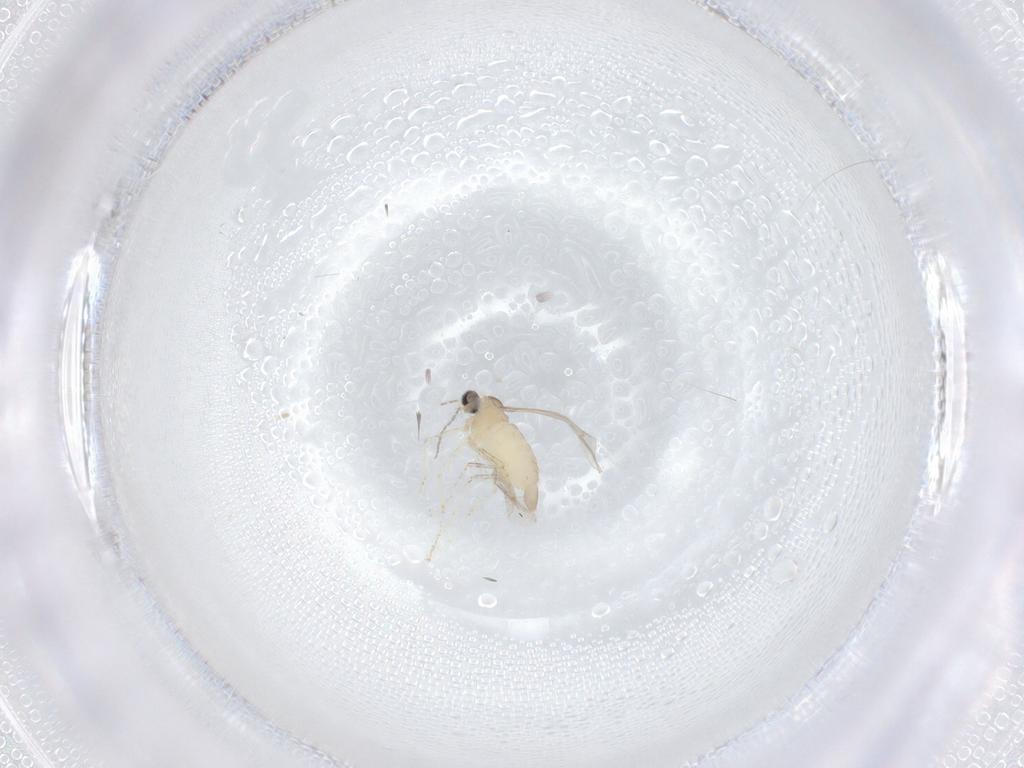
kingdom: Animalia
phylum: Arthropoda
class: Insecta
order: Diptera
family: Cecidomyiidae
